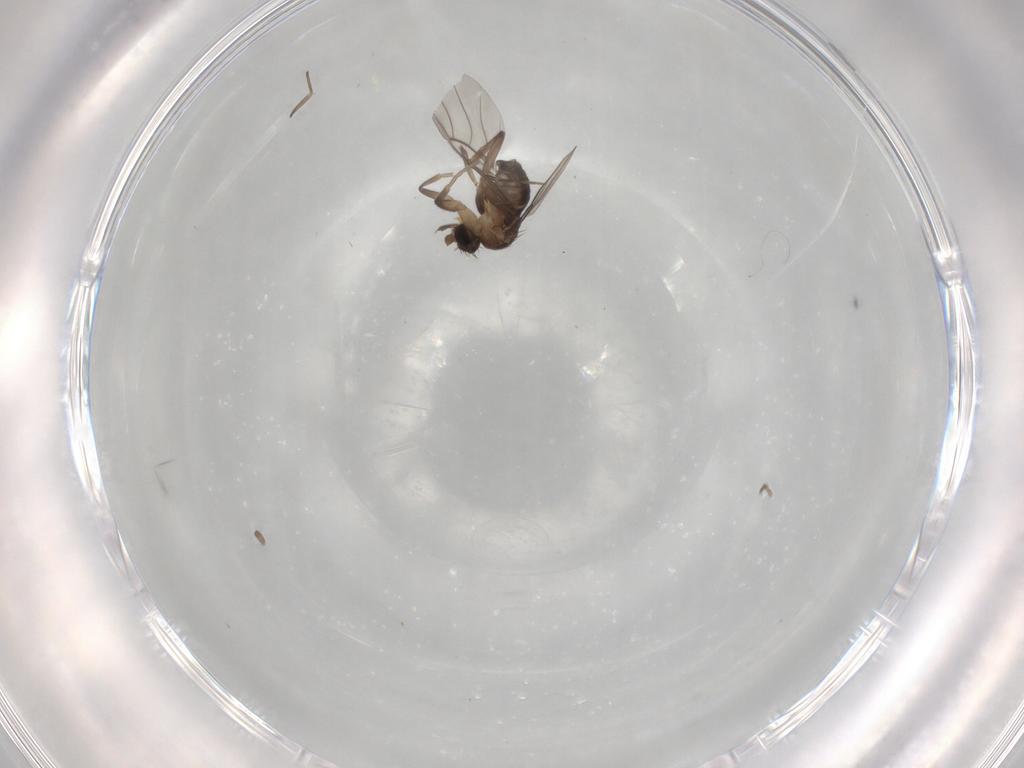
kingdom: Animalia
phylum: Arthropoda
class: Insecta
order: Diptera
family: Phoridae
